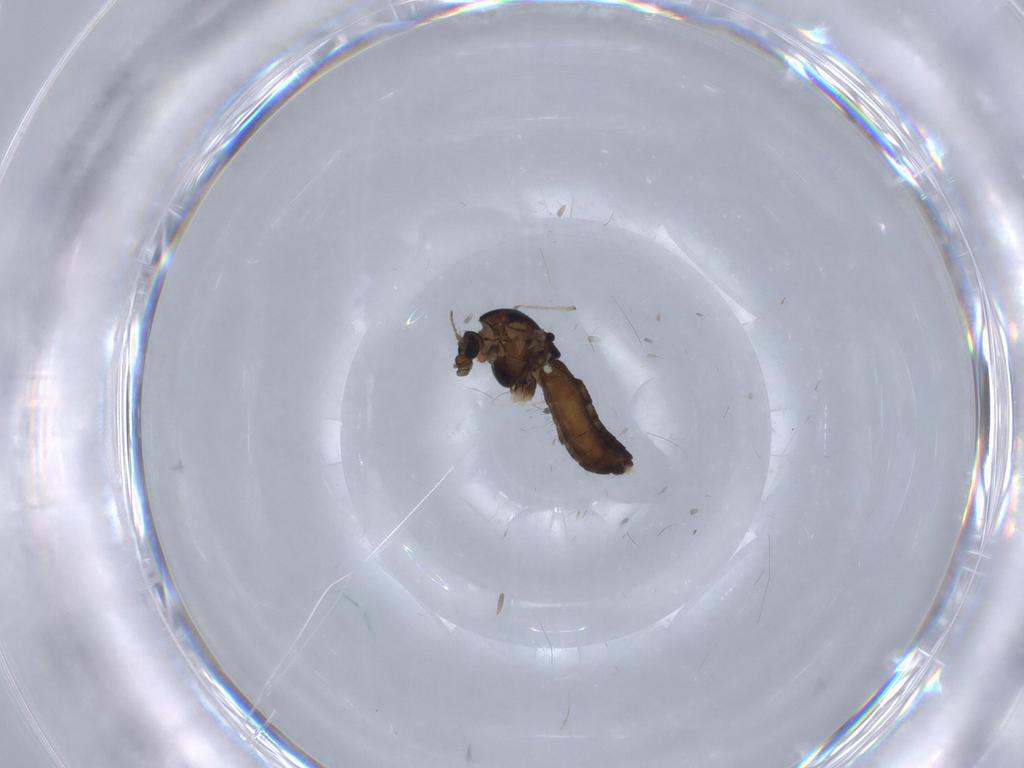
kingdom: Animalia
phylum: Arthropoda
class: Insecta
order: Diptera
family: Chironomidae
